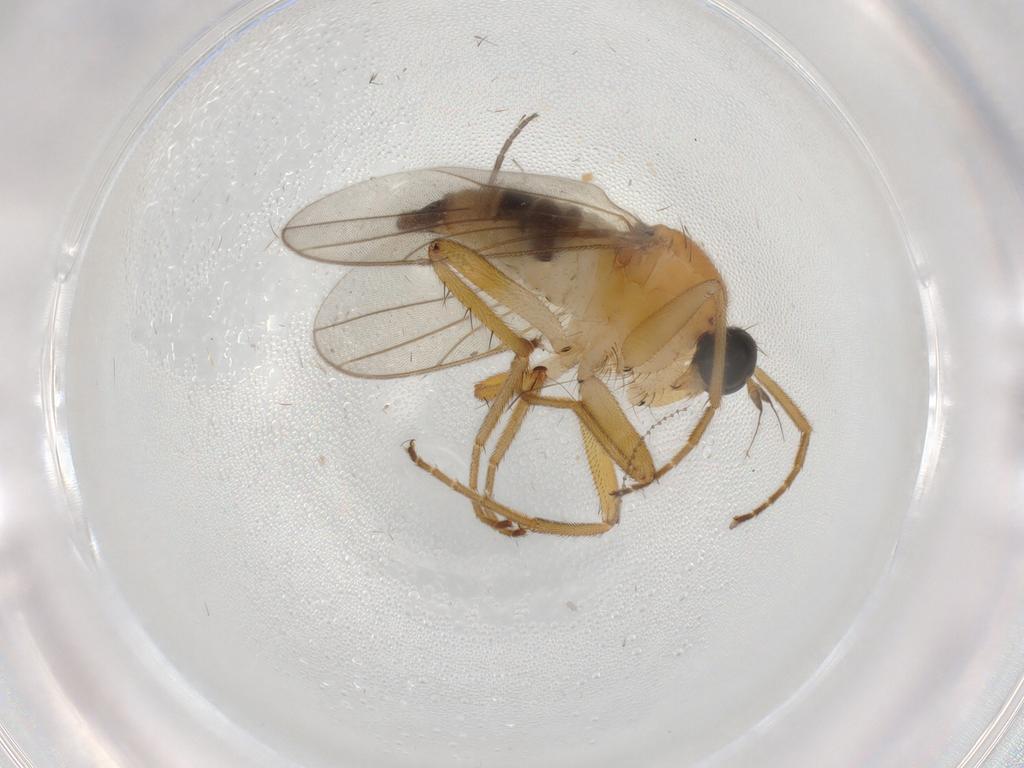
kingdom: Animalia
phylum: Arthropoda
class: Insecta
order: Diptera
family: Hybotidae
